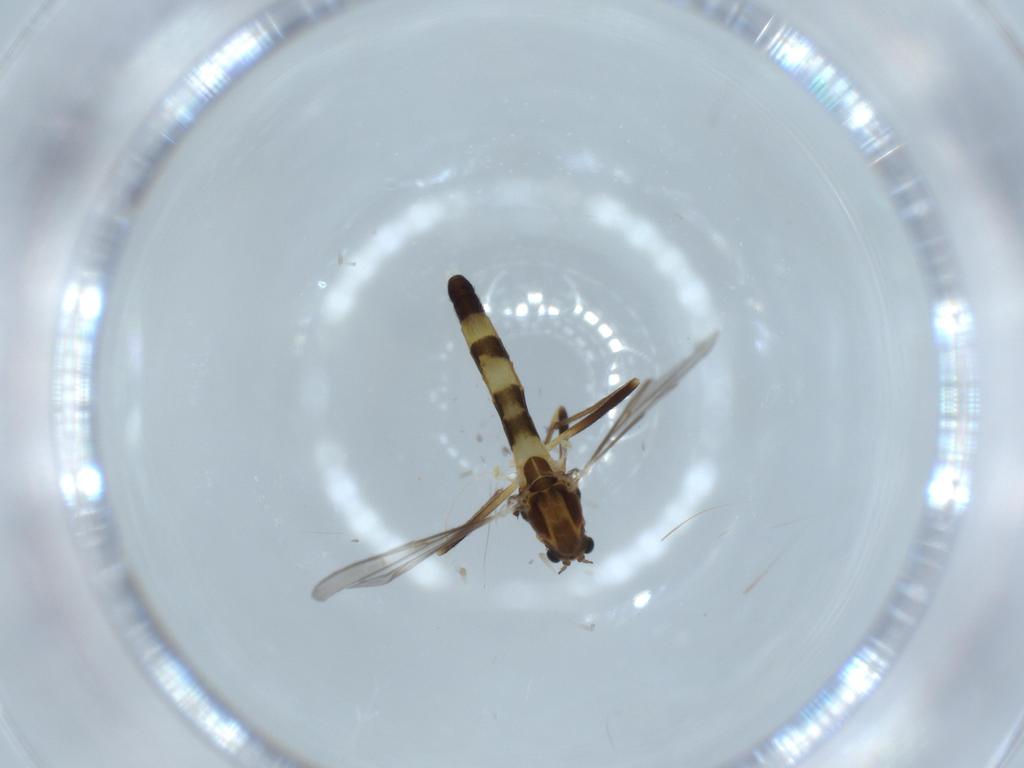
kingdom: Animalia
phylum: Arthropoda
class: Insecta
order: Diptera
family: Chironomidae
